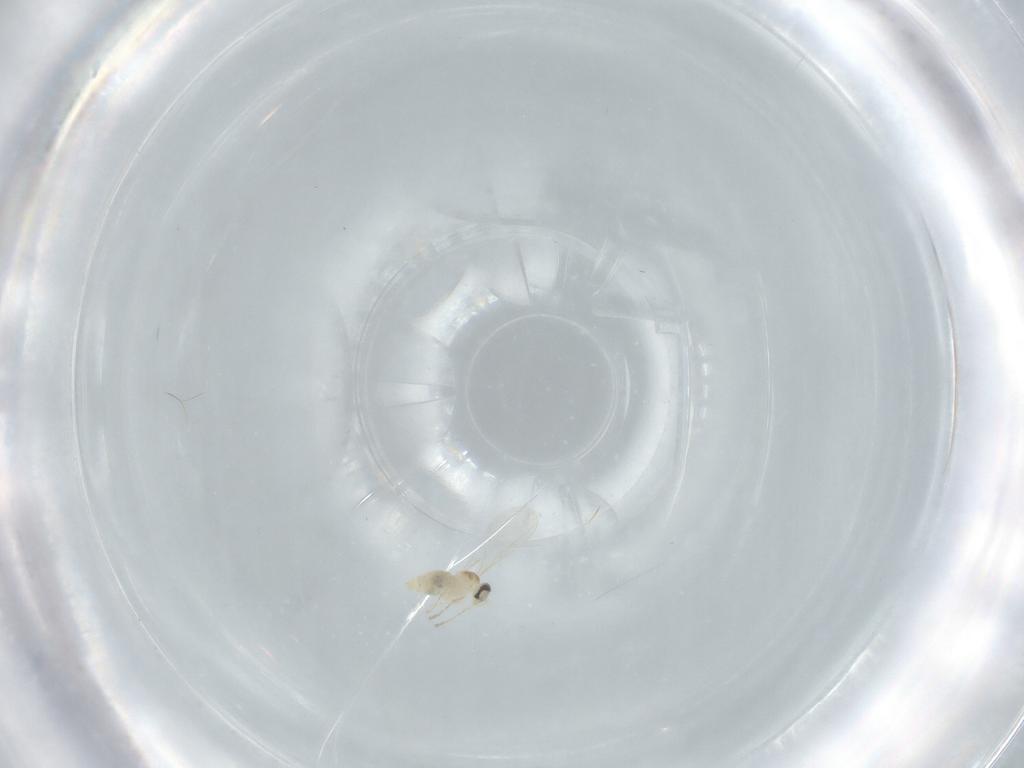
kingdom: Animalia
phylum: Arthropoda
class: Insecta
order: Diptera
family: Cecidomyiidae
